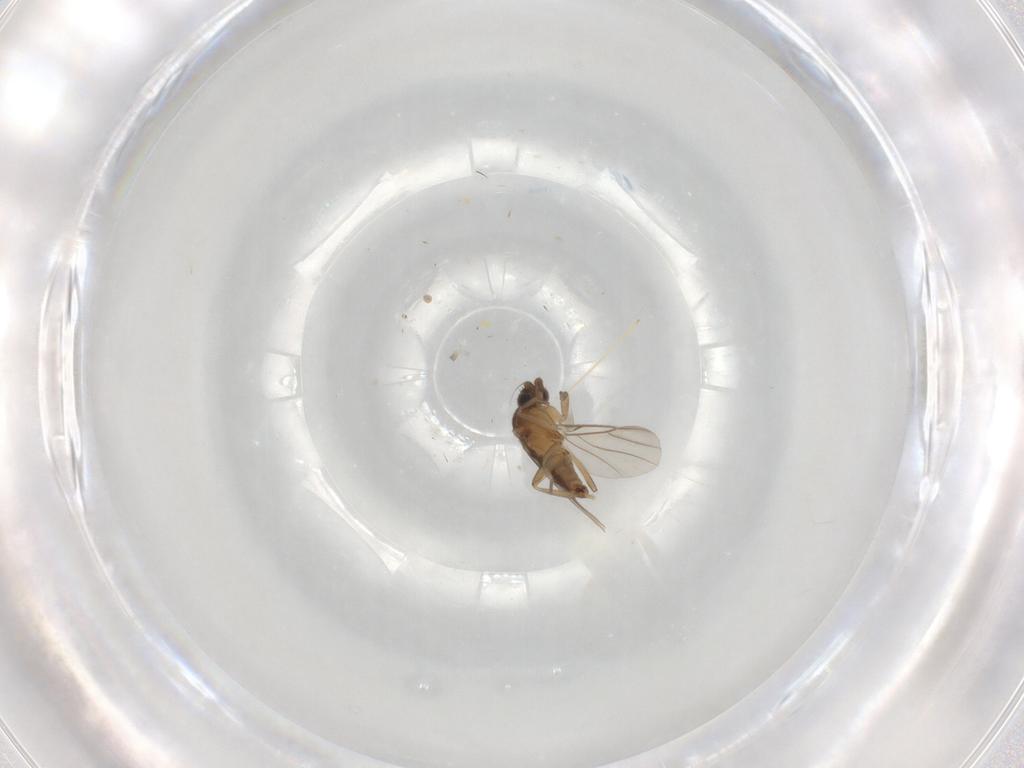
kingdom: Animalia
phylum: Arthropoda
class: Insecta
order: Diptera
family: Phoridae
